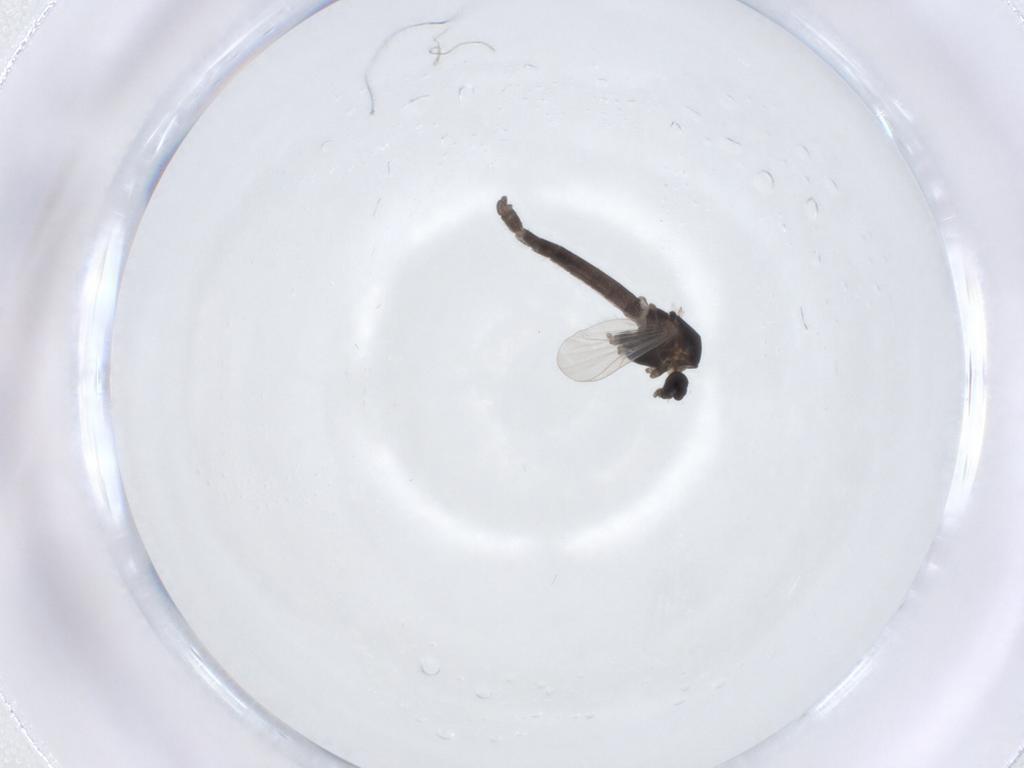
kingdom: Animalia
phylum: Arthropoda
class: Insecta
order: Diptera
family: Chironomidae
